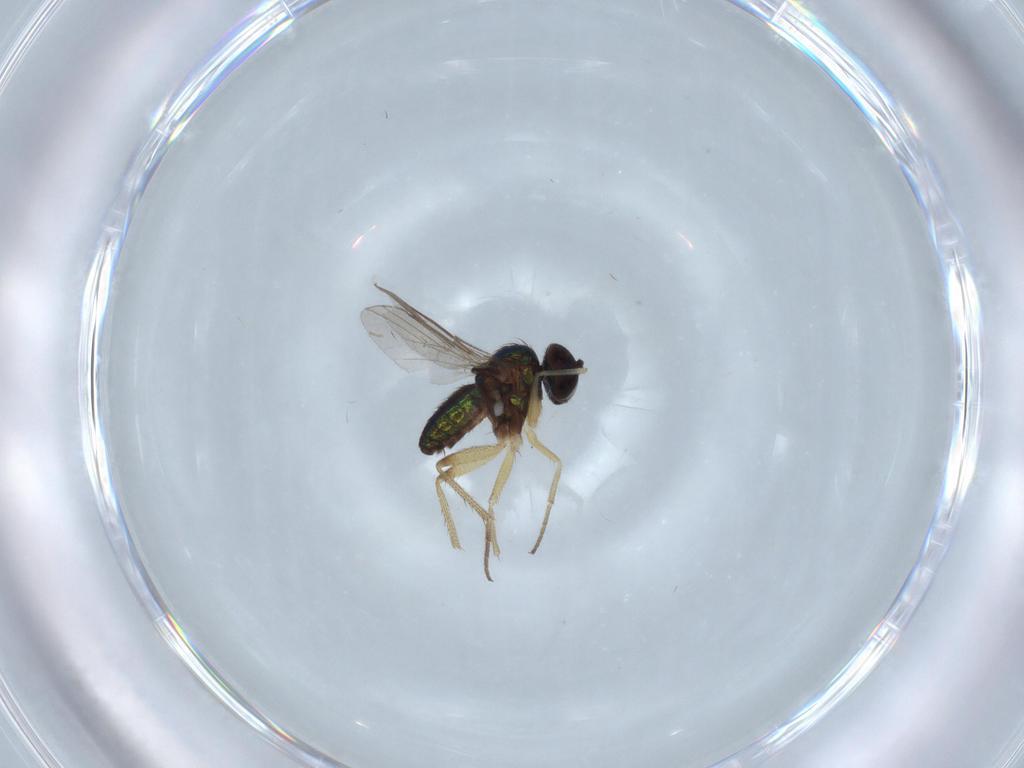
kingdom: Animalia
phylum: Arthropoda
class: Insecta
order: Diptera
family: Dolichopodidae
